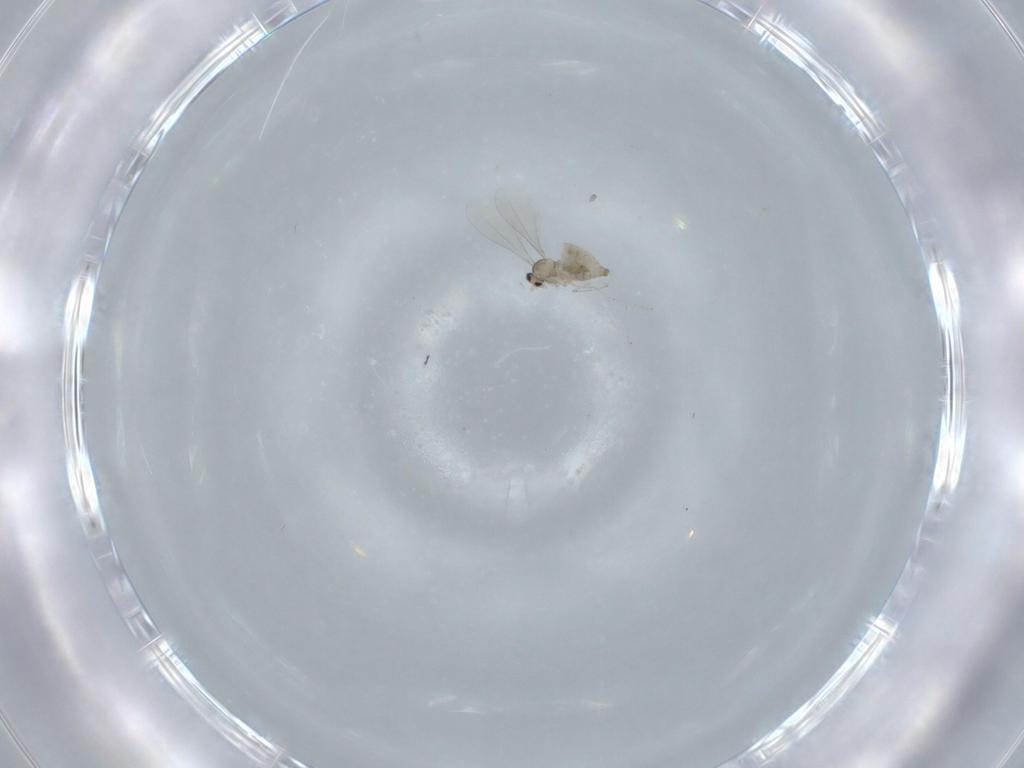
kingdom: Animalia
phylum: Arthropoda
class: Insecta
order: Diptera
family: Cecidomyiidae
